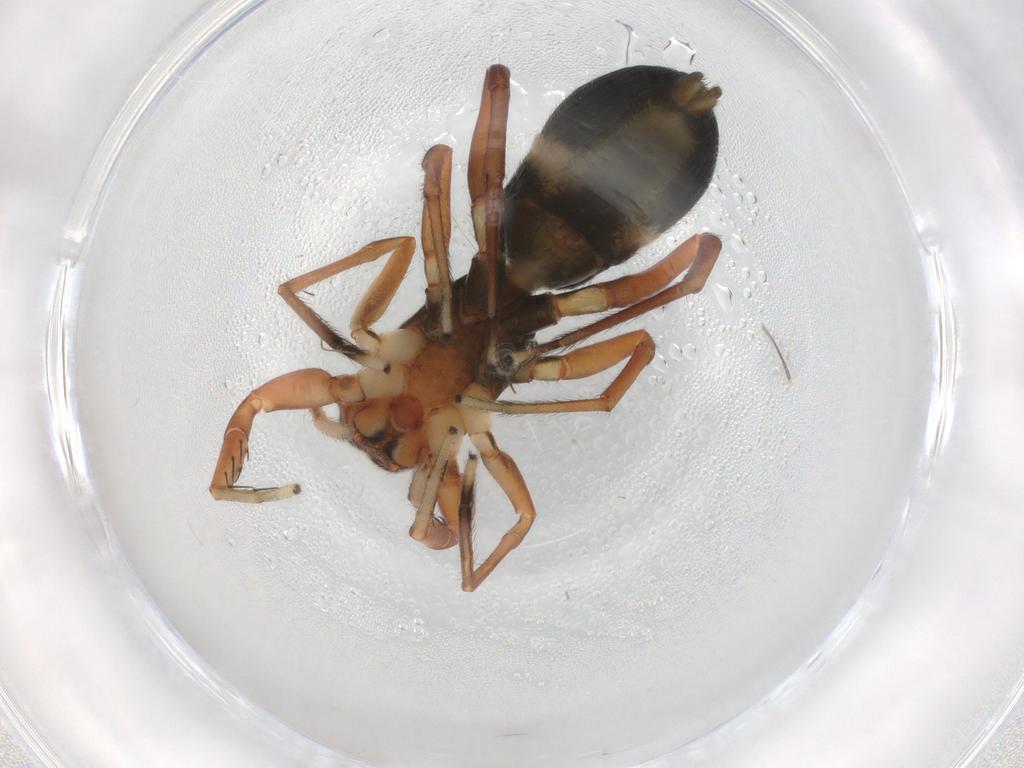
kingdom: Animalia
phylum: Arthropoda
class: Arachnida
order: Araneae
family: Salticidae
